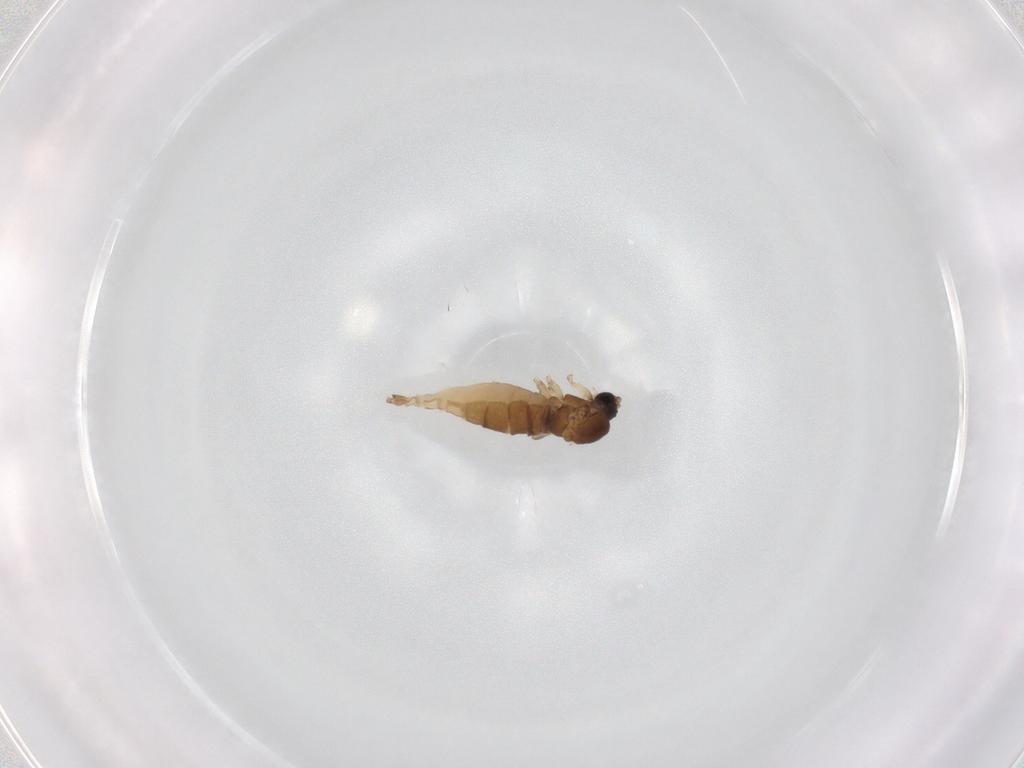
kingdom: Animalia
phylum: Arthropoda
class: Insecta
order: Diptera
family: Sciaridae
